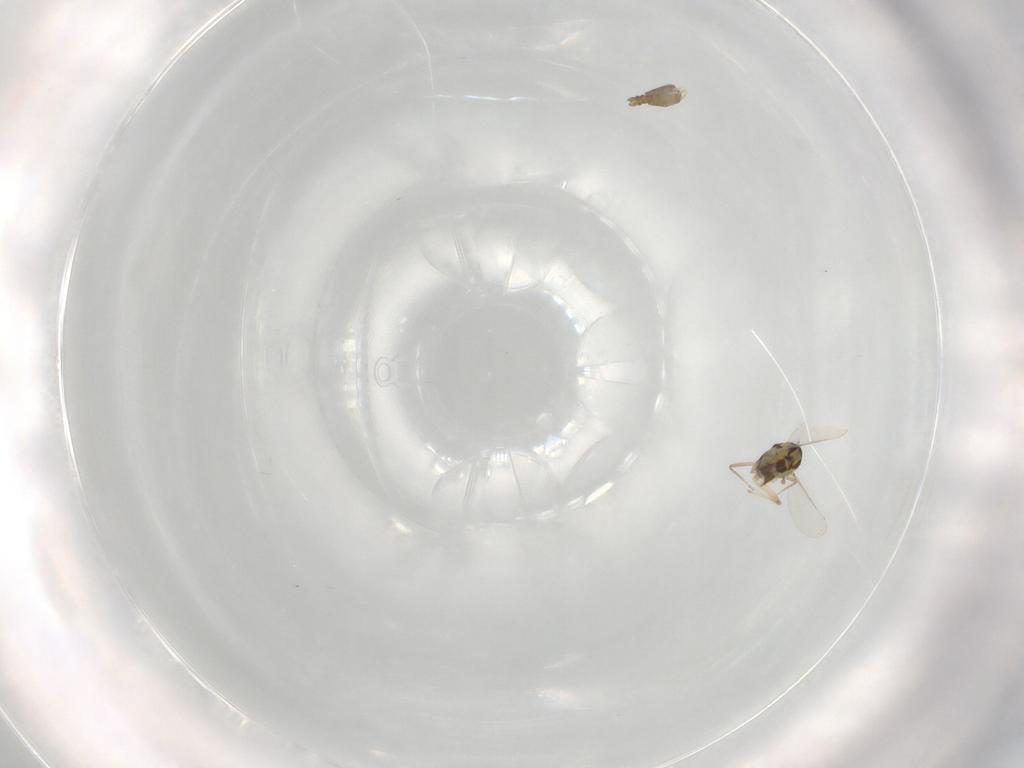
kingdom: Animalia
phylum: Arthropoda
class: Insecta
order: Diptera
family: Chironomidae
